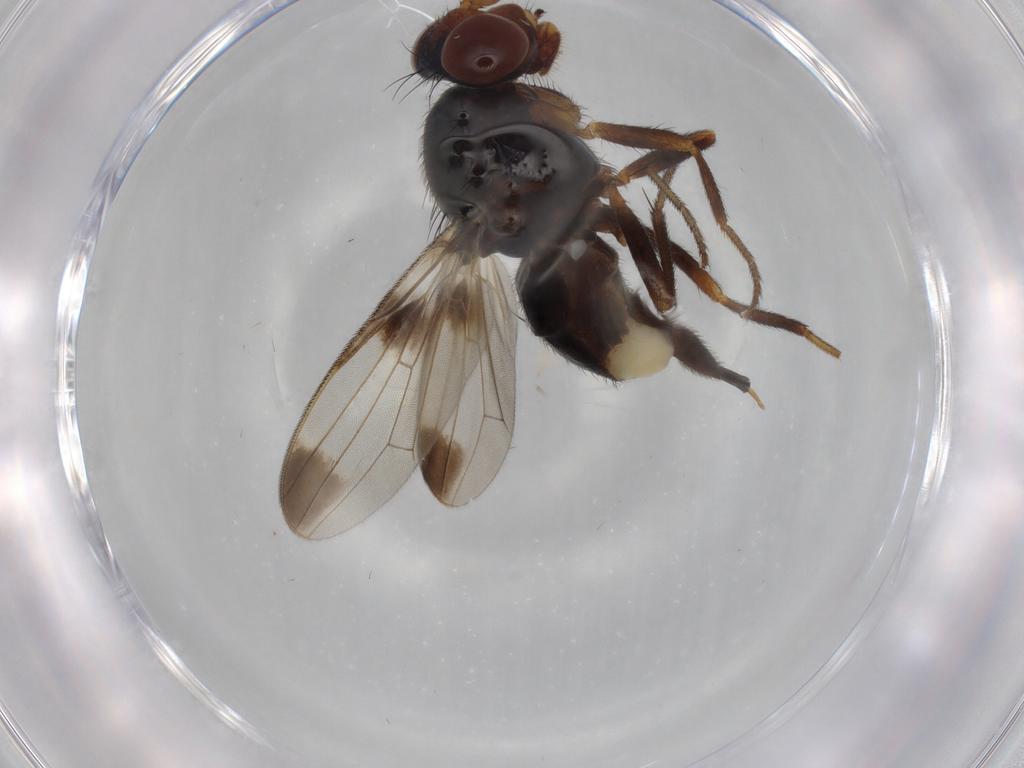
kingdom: Animalia
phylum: Arthropoda
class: Insecta
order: Diptera
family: Ulidiidae
